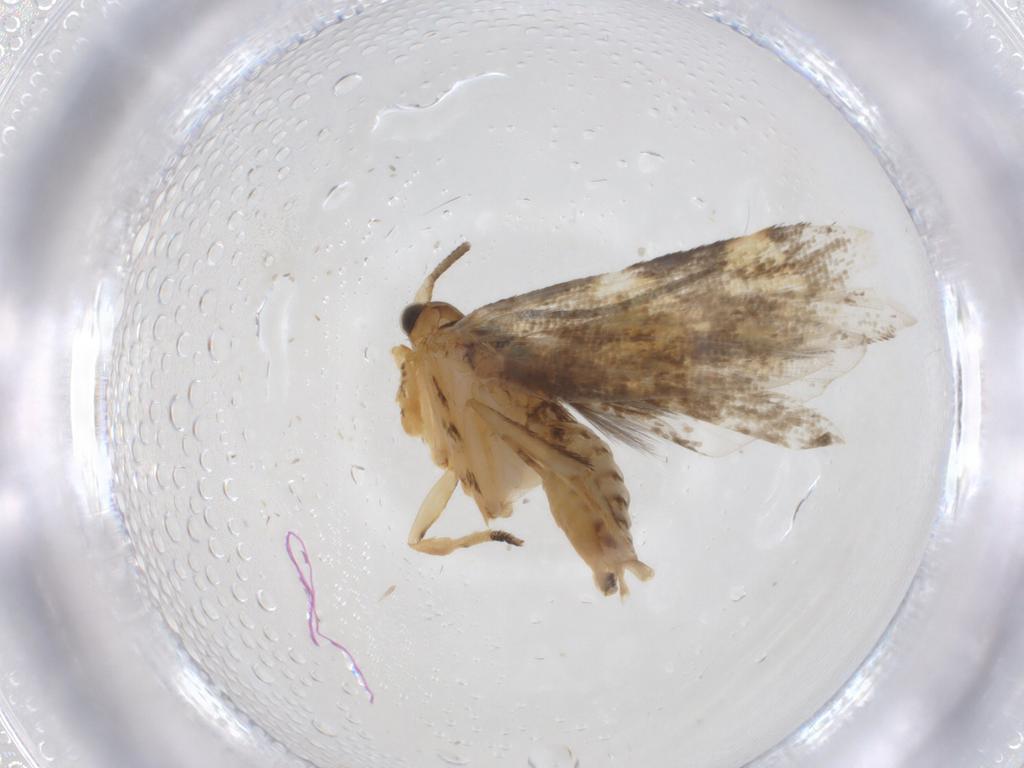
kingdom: Animalia
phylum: Arthropoda
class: Insecta
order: Lepidoptera
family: Tineidae
